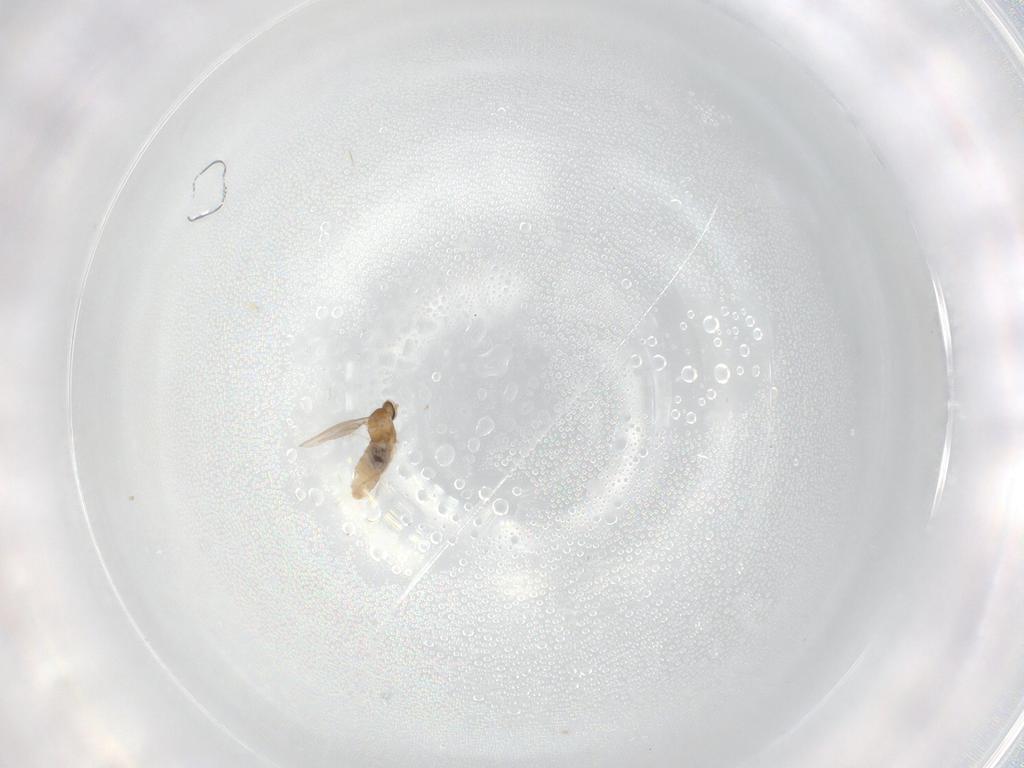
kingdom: Animalia
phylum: Arthropoda
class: Insecta
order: Diptera
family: Cecidomyiidae
